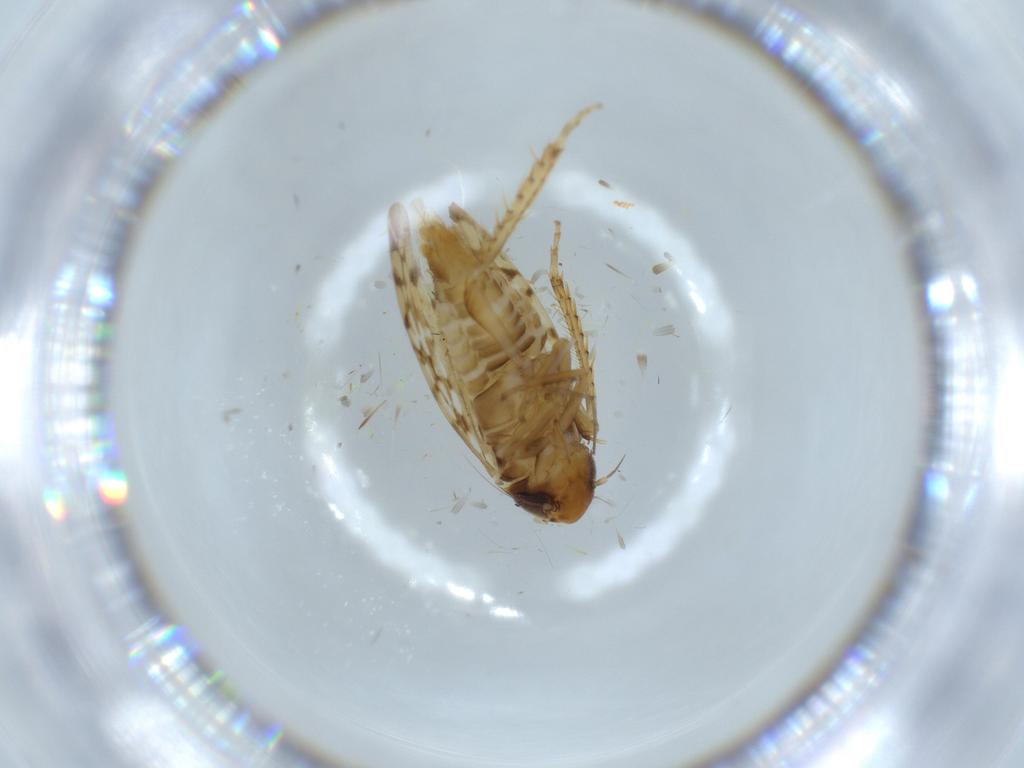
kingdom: Animalia
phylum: Arthropoda
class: Insecta
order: Hemiptera
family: Cicadellidae
